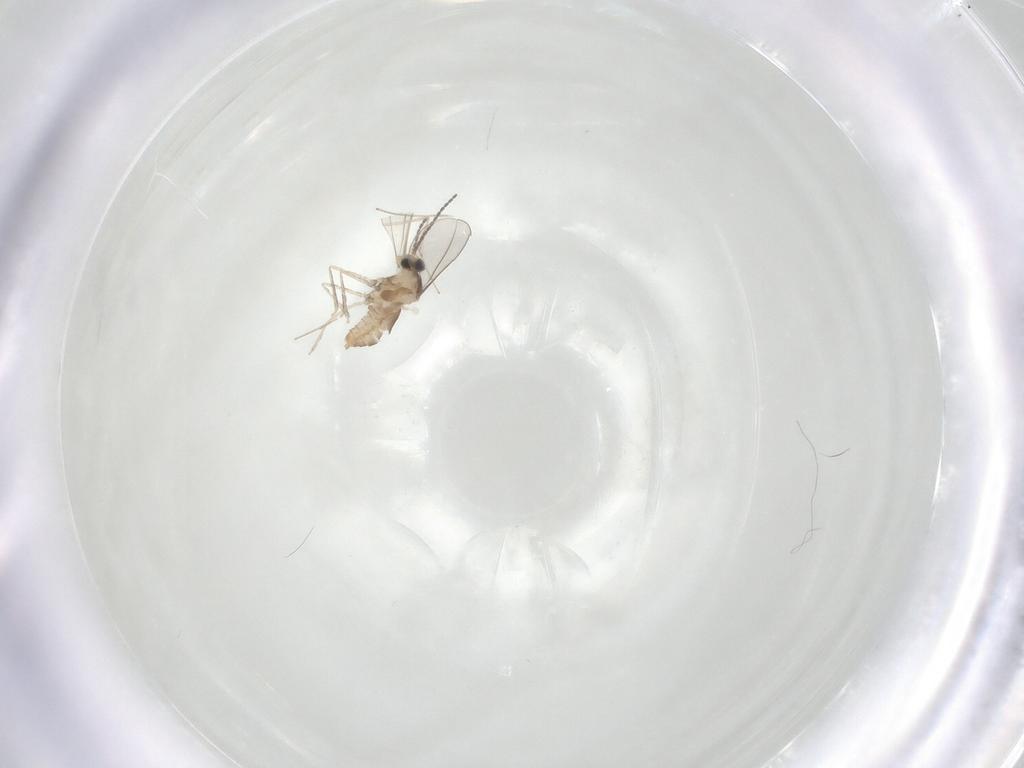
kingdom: Animalia
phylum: Arthropoda
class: Insecta
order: Diptera
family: Cecidomyiidae
